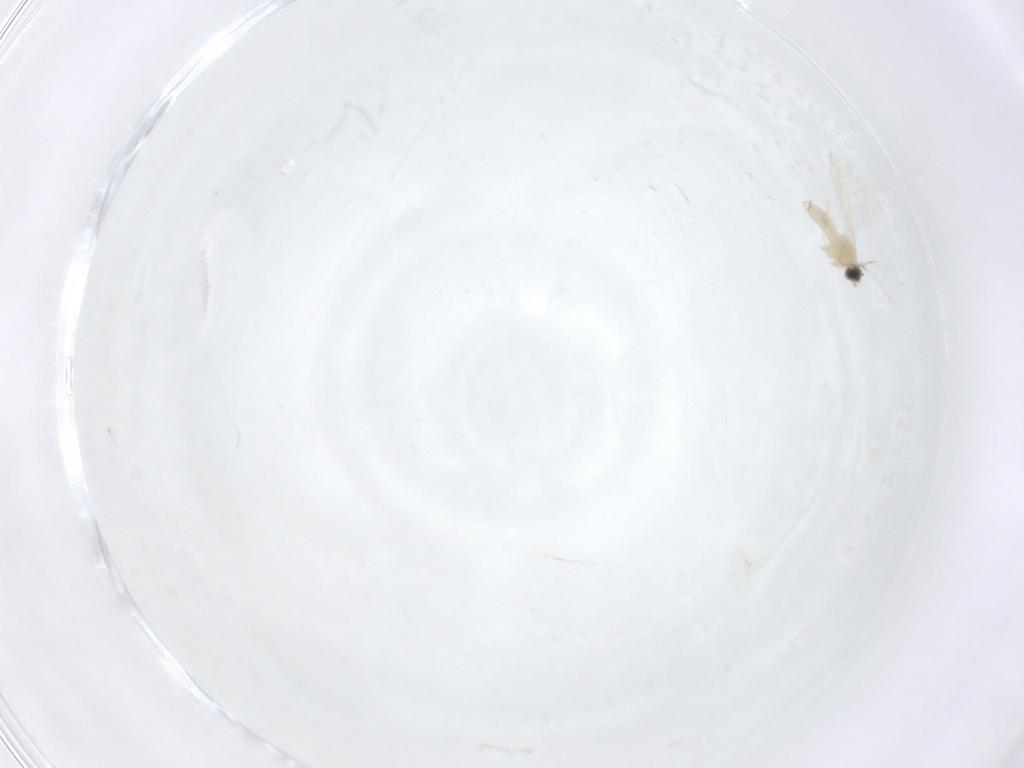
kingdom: Animalia
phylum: Arthropoda
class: Insecta
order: Diptera
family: Cecidomyiidae
